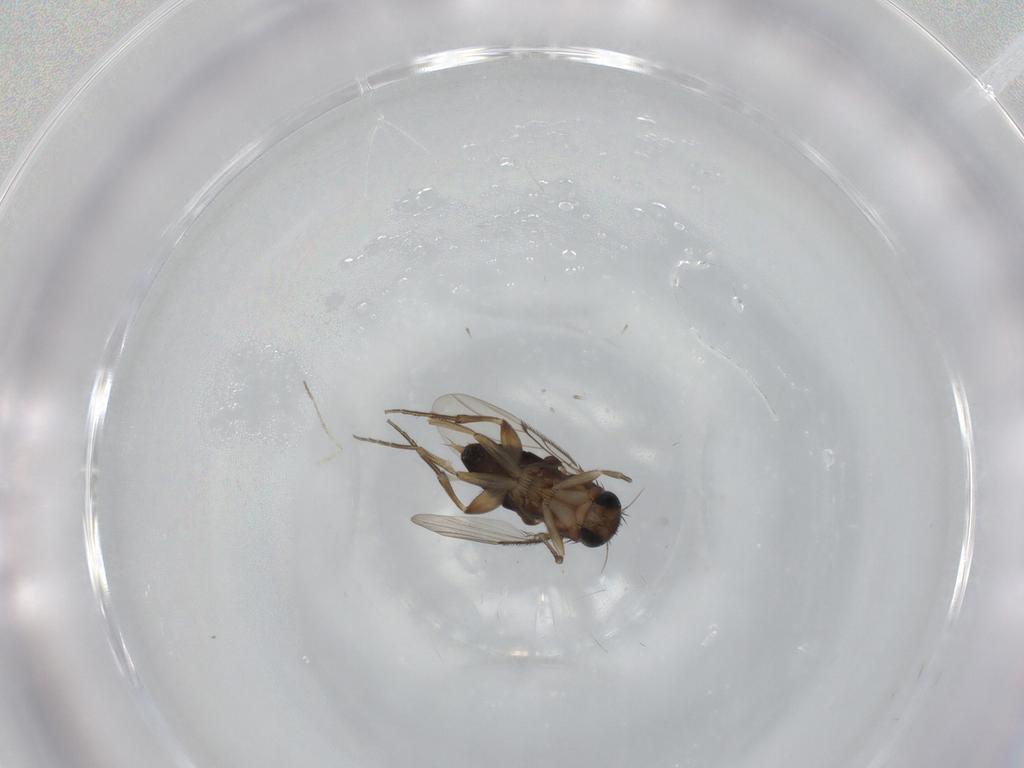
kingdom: Animalia
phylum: Arthropoda
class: Insecta
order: Diptera
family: Phoridae
